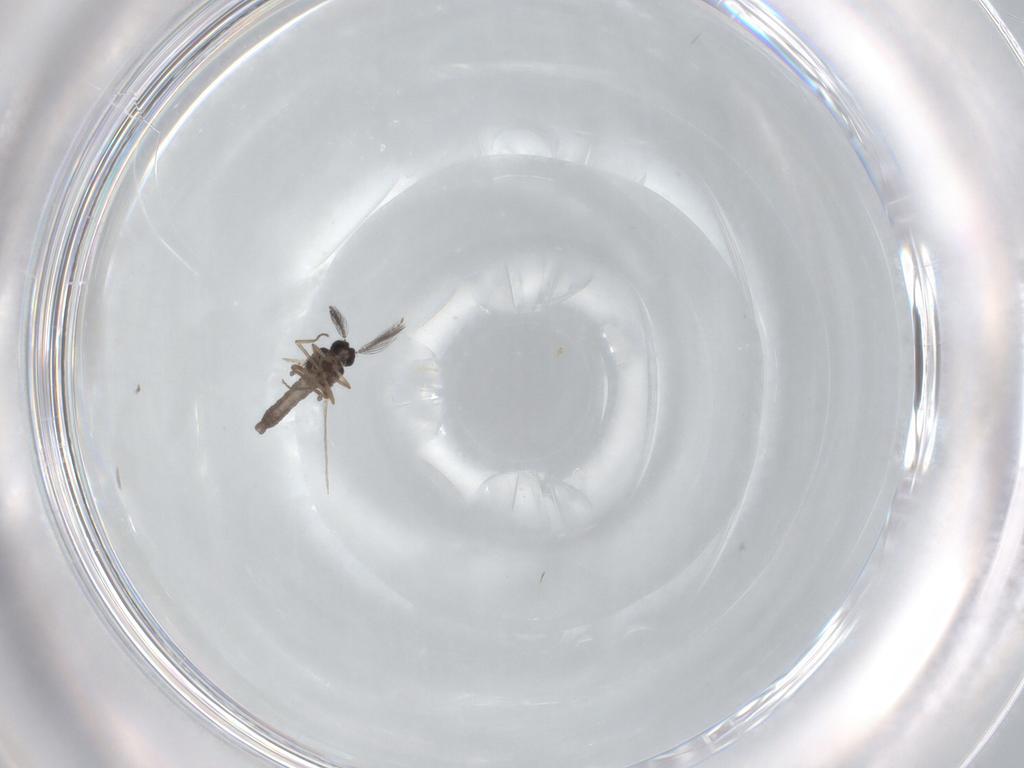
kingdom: Animalia
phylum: Arthropoda
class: Insecta
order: Diptera
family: Ceratopogonidae
